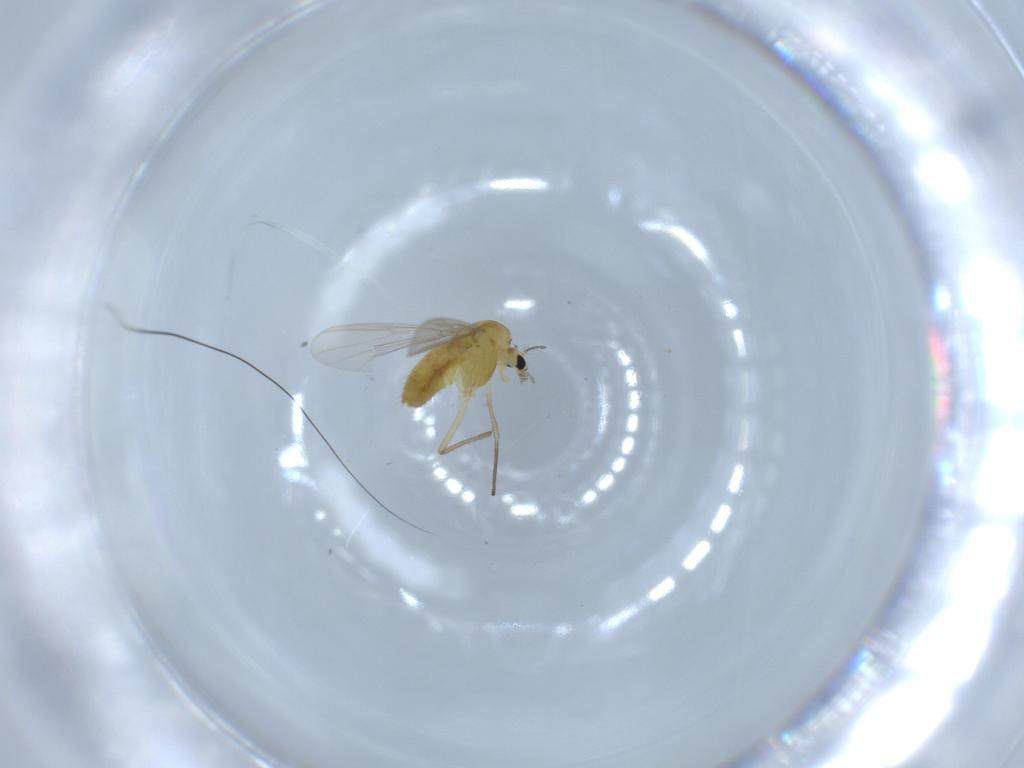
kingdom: Animalia
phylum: Arthropoda
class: Insecta
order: Diptera
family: Chironomidae
